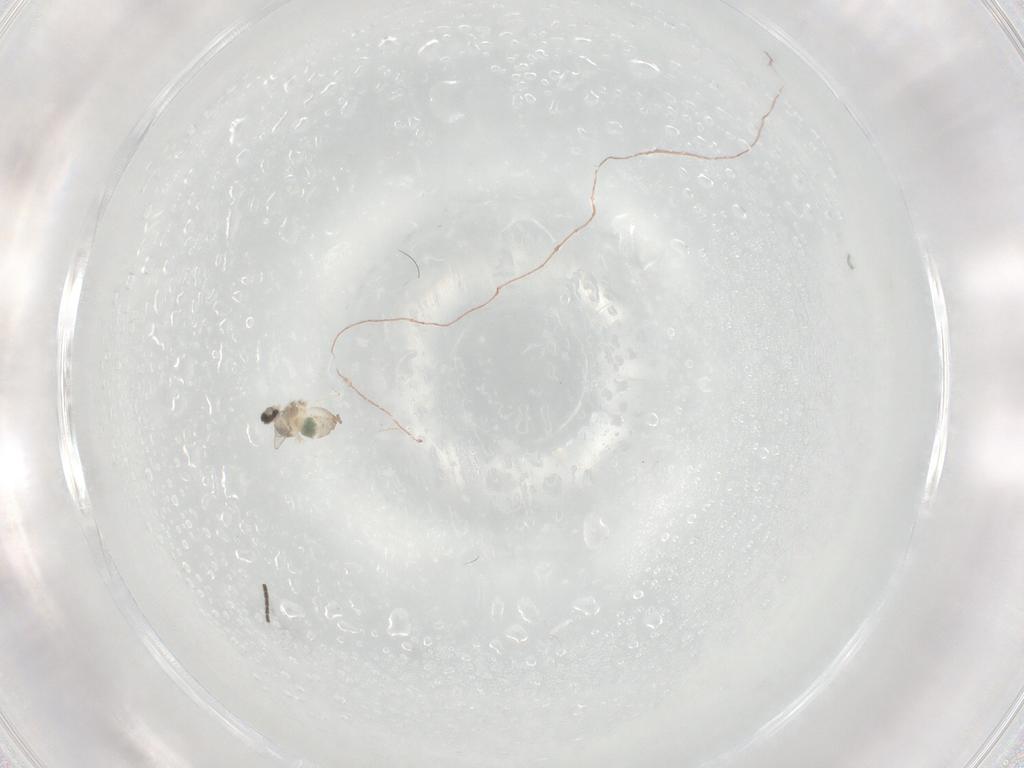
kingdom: Animalia
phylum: Arthropoda
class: Insecta
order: Diptera
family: Cecidomyiidae
